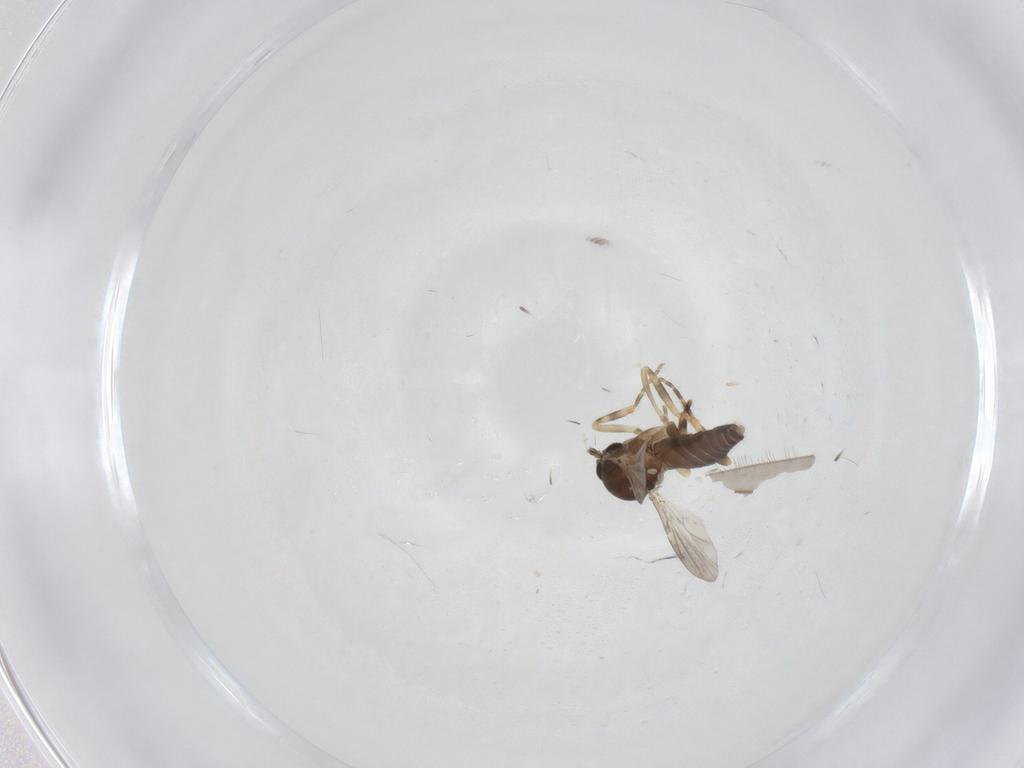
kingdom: Animalia
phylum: Arthropoda
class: Insecta
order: Diptera
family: Ceratopogonidae
